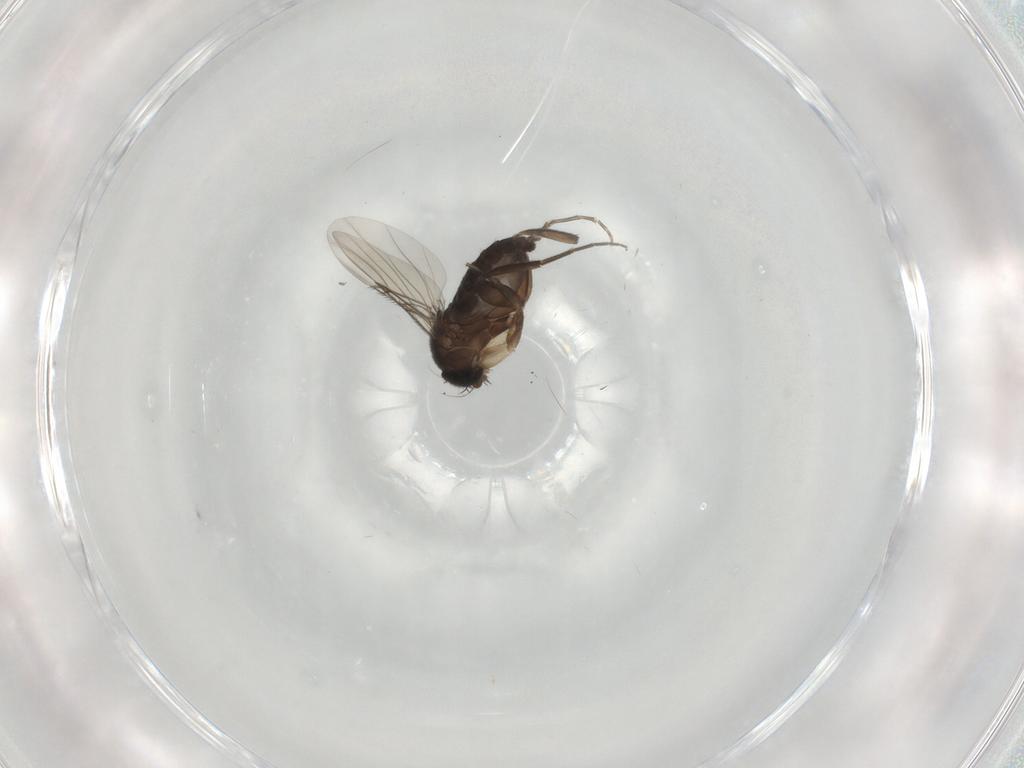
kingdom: Animalia
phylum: Arthropoda
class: Insecta
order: Diptera
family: Phoridae
